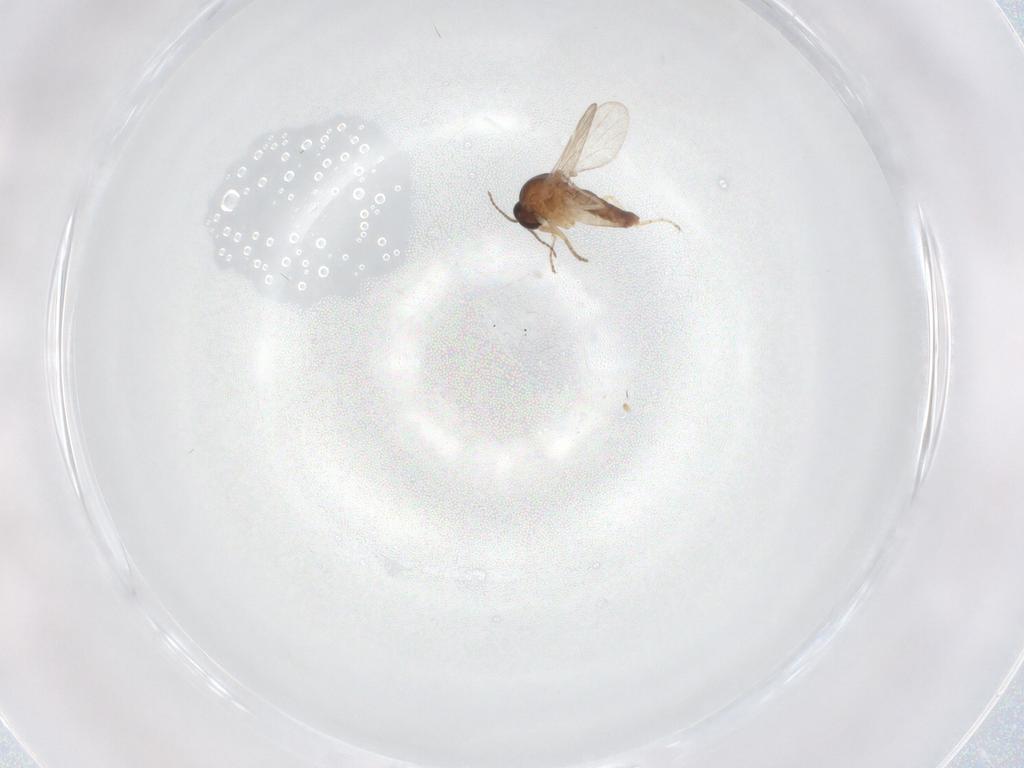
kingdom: Animalia
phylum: Arthropoda
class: Insecta
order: Diptera
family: Ceratopogonidae
